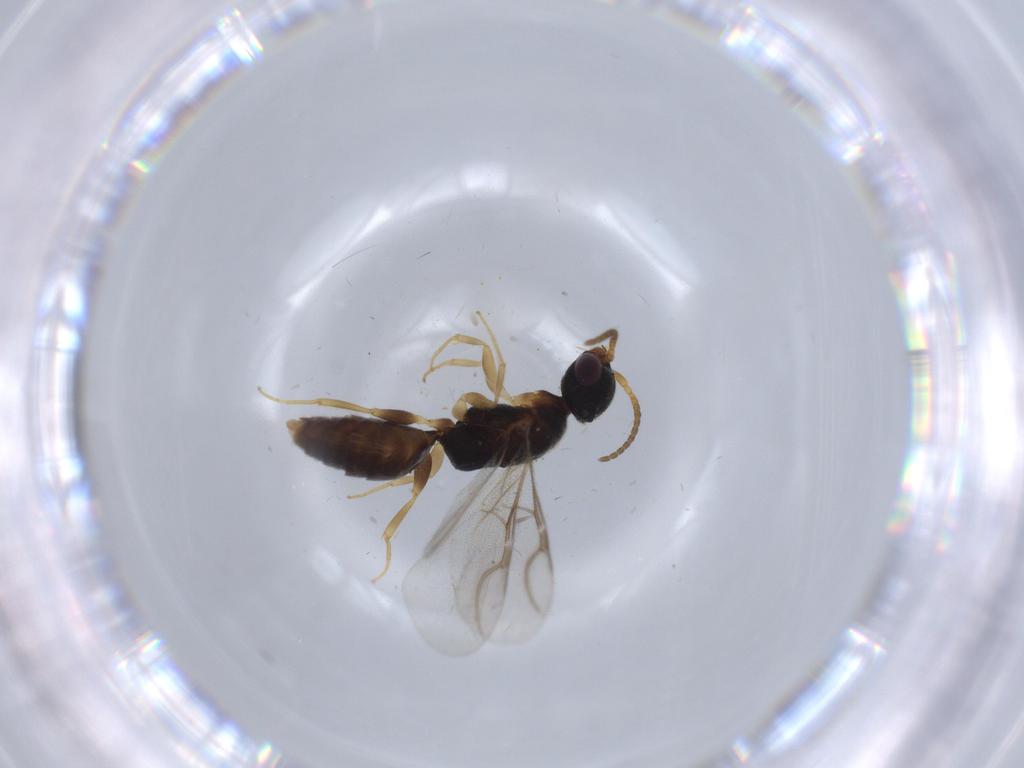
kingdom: Animalia
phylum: Arthropoda
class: Insecta
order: Hymenoptera
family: Bethylidae
